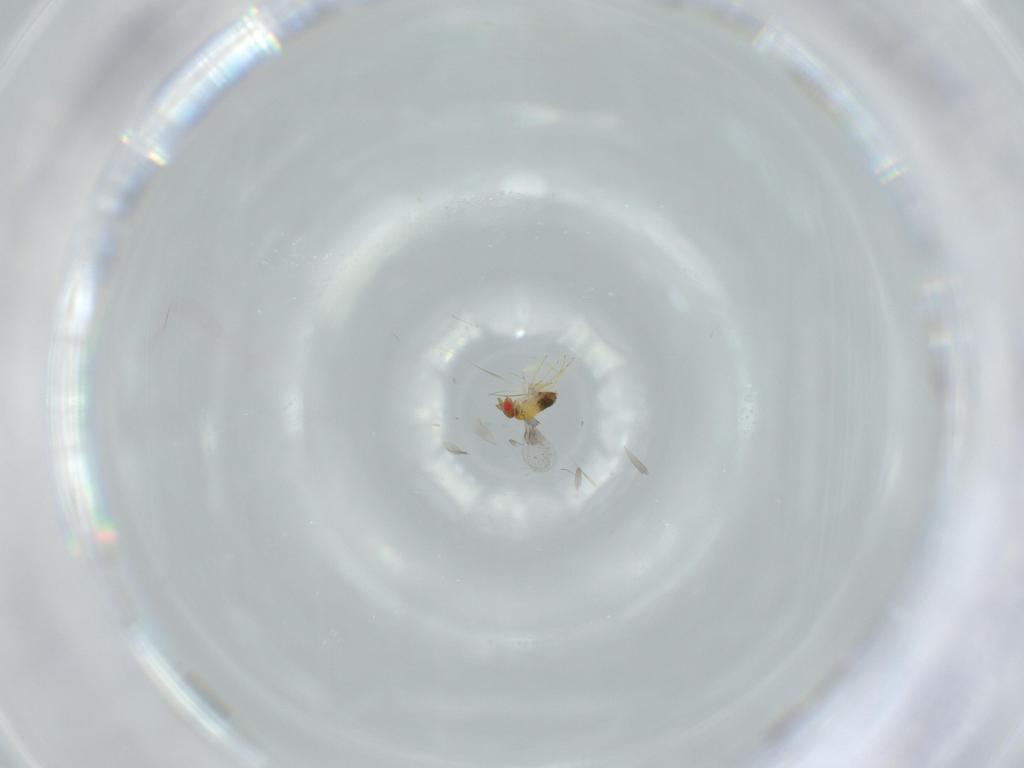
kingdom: Animalia
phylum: Arthropoda
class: Insecta
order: Hymenoptera
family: Trichogrammatidae
